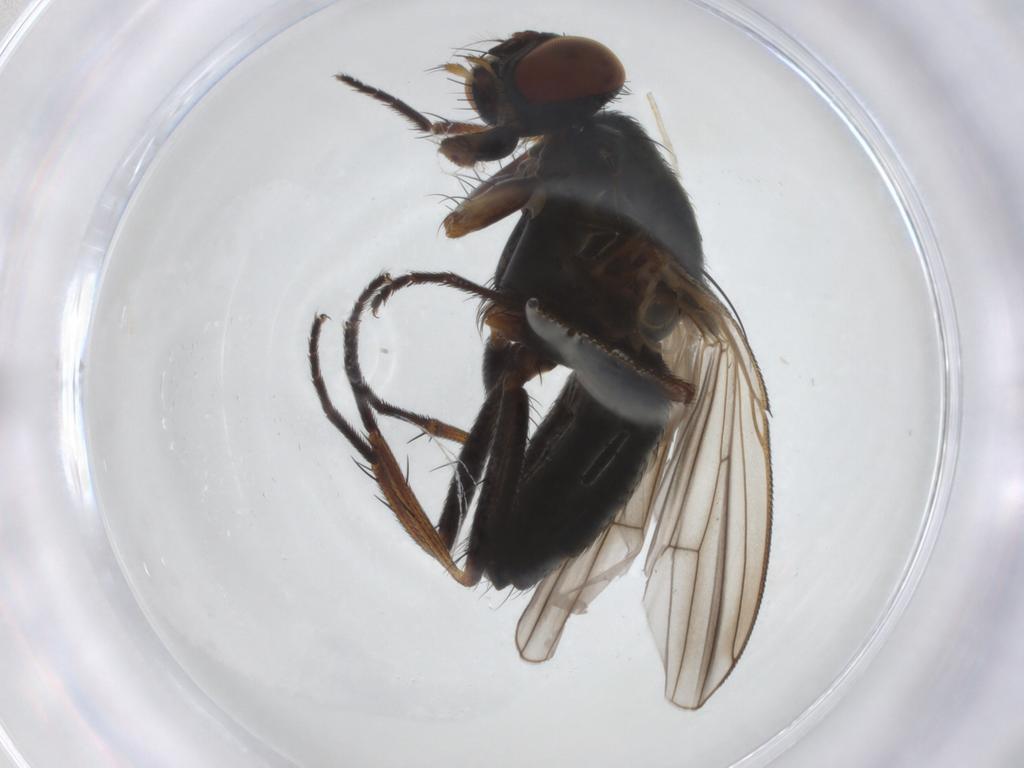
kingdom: Animalia
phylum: Arthropoda
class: Insecta
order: Diptera
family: Muscidae
